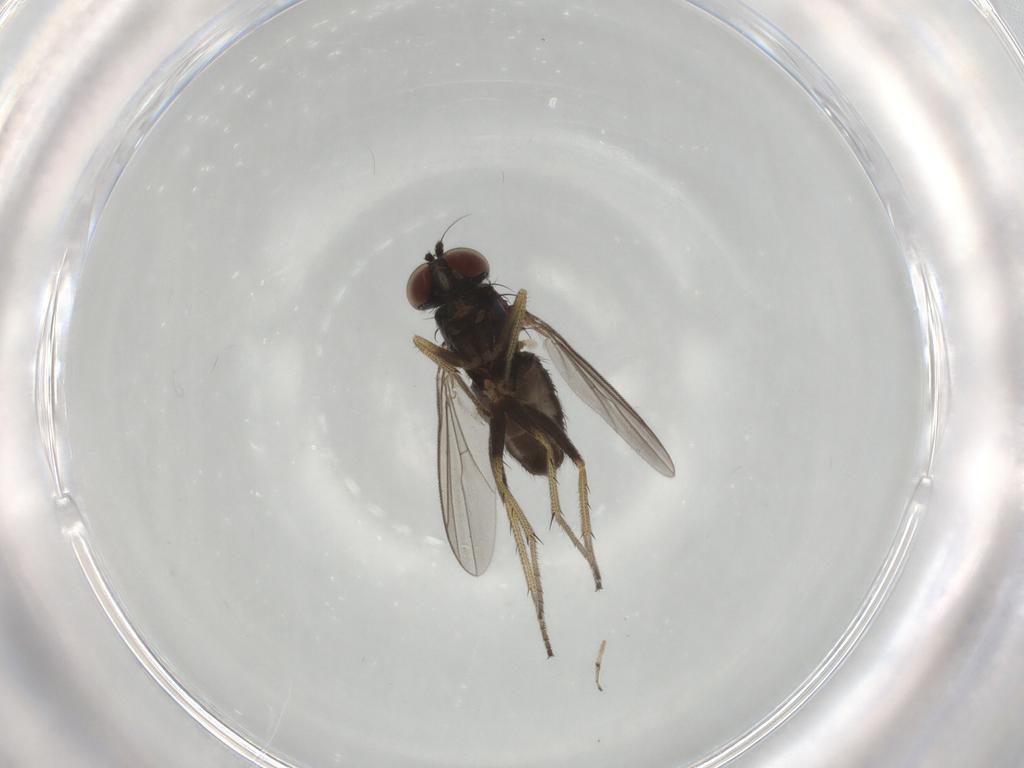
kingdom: Animalia
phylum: Arthropoda
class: Insecta
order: Diptera
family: Dolichopodidae
